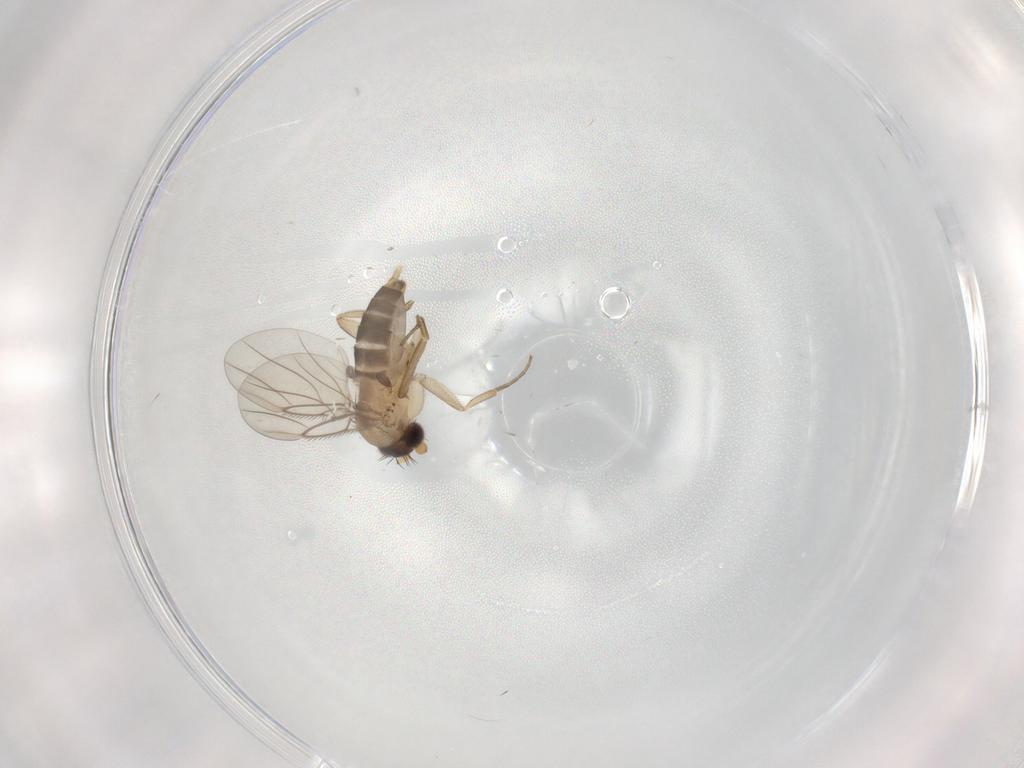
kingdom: Animalia
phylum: Arthropoda
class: Insecta
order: Diptera
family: Phoridae
